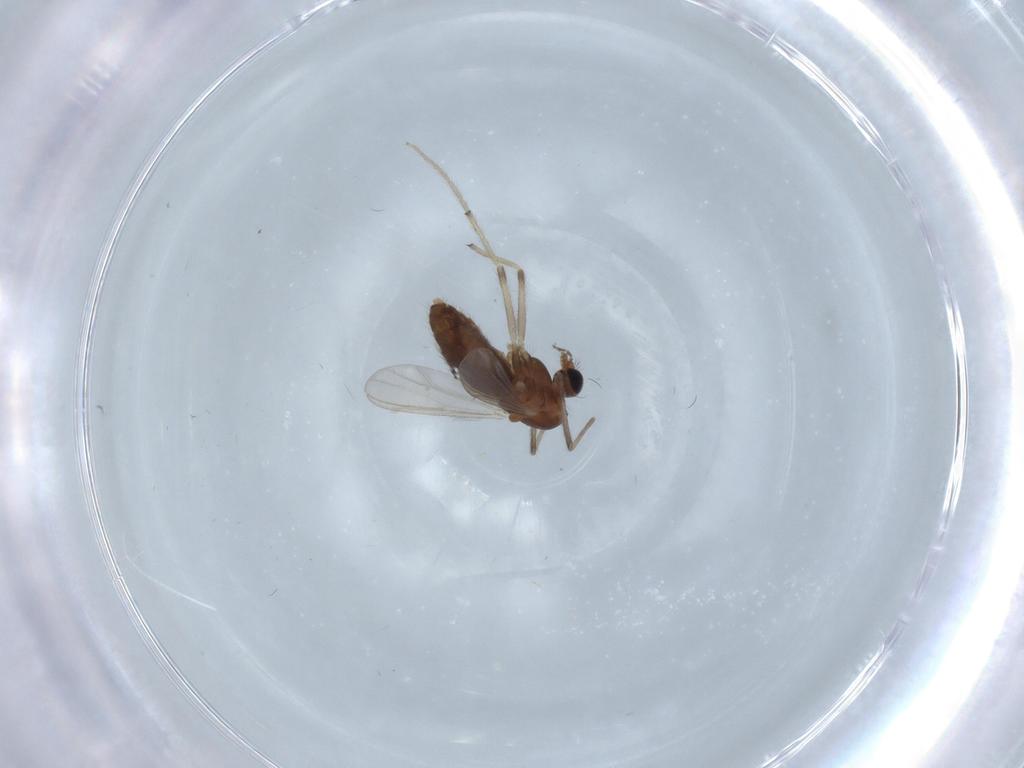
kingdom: Animalia
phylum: Arthropoda
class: Insecta
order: Diptera
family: Chironomidae
